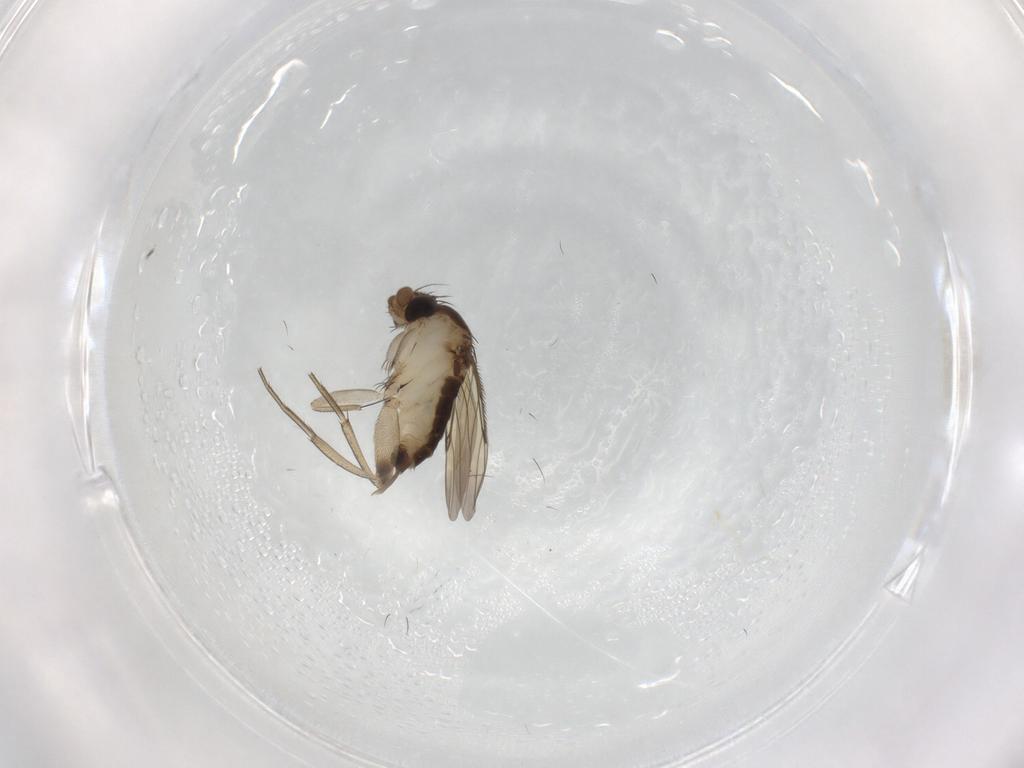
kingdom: Animalia
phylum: Arthropoda
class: Insecta
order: Diptera
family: Phoridae
